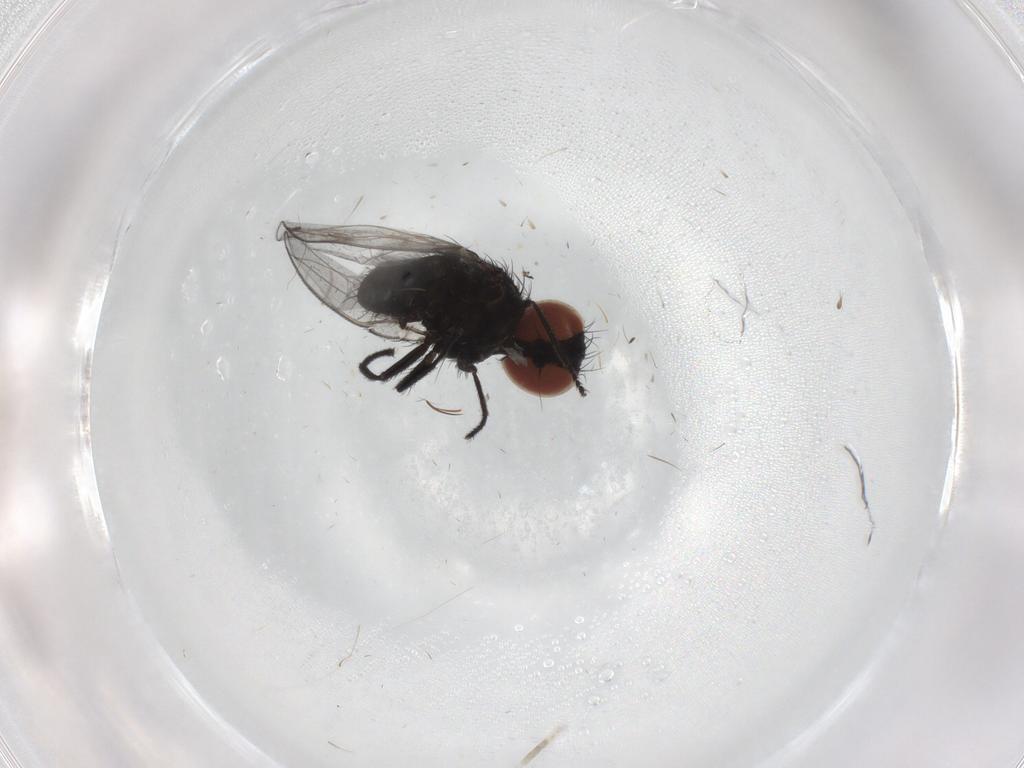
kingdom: Animalia
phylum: Arthropoda
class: Insecta
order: Diptera
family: Milichiidae
